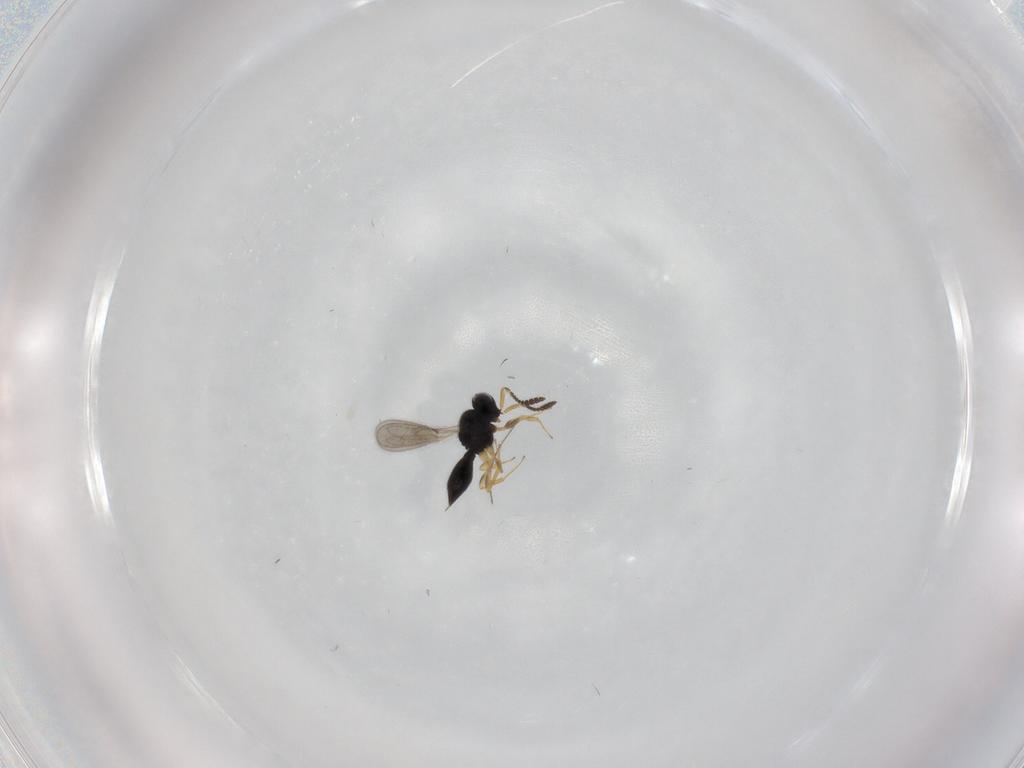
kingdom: Animalia
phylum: Arthropoda
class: Insecta
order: Hymenoptera
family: Scelionidae
